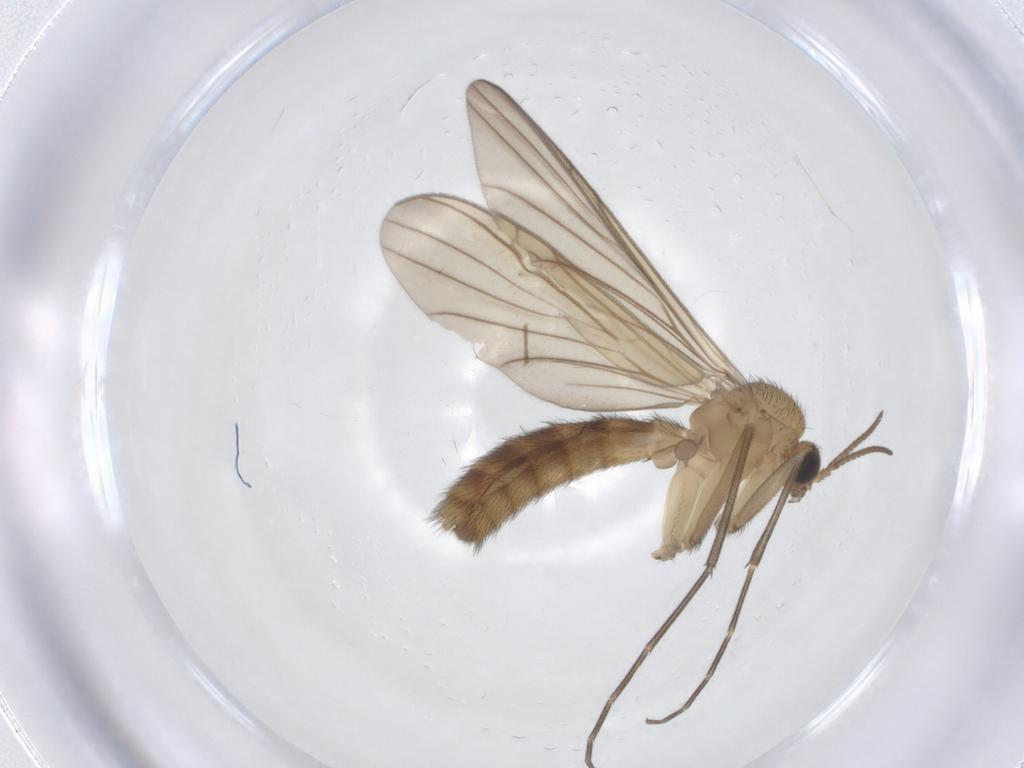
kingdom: Animalia
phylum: Arthropoda
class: Insecta
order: Diptera
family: Keroplatidae
